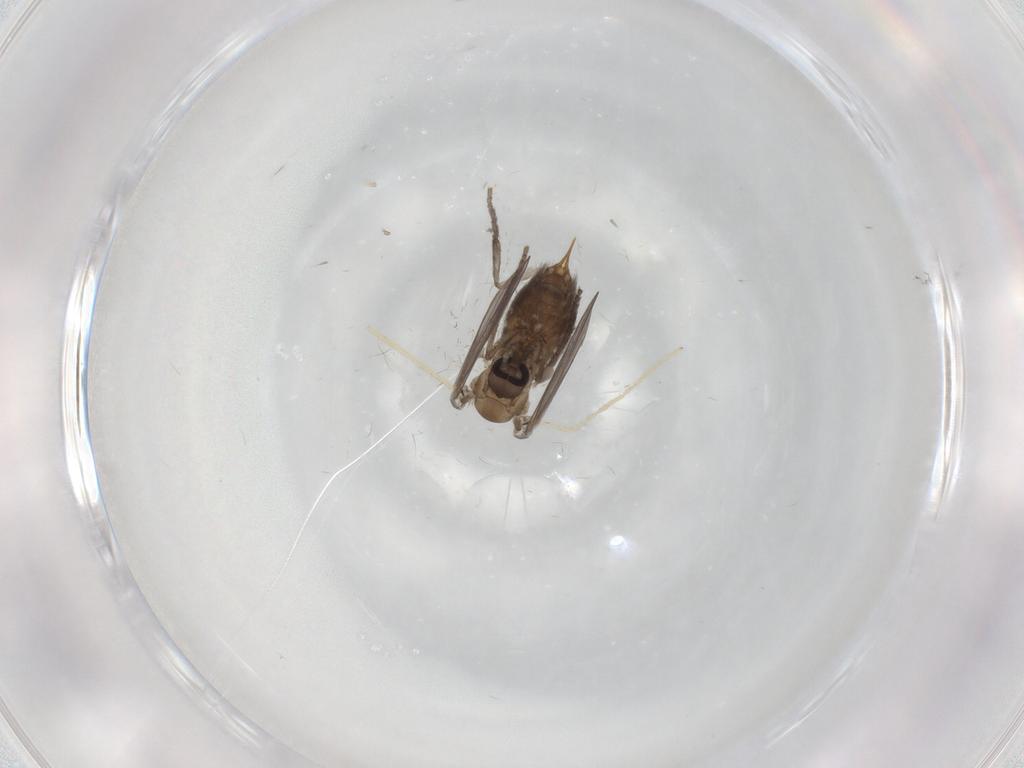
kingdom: Animalia
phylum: Arthropoda
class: Insecta
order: Diptera
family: Psychodidae
